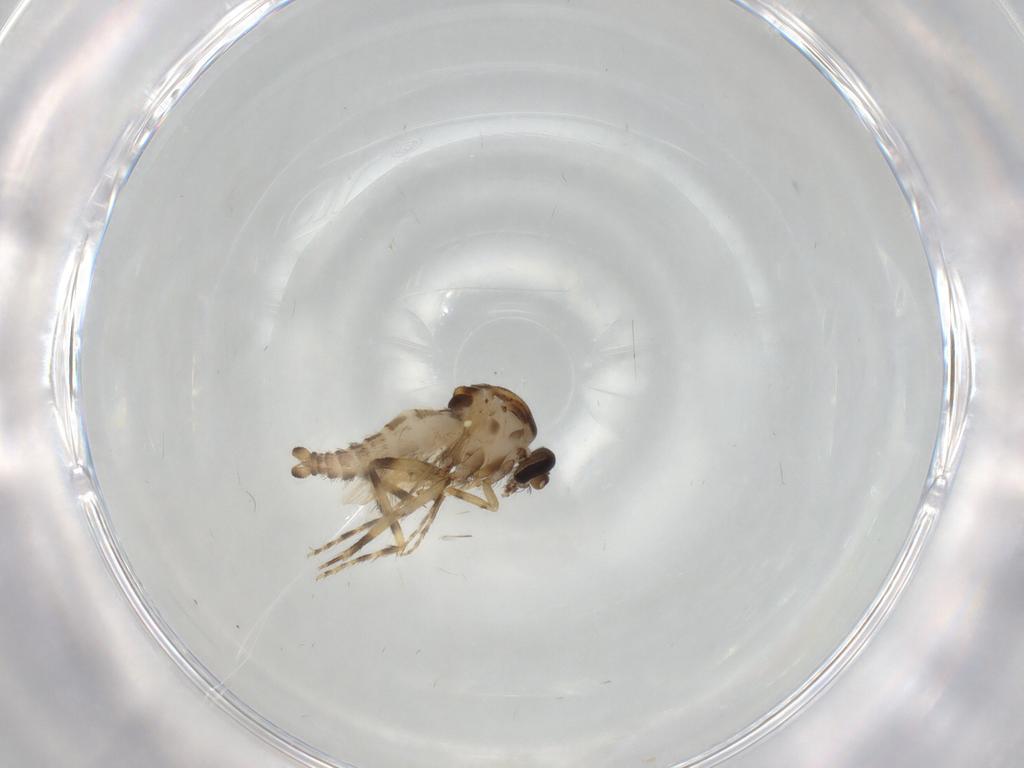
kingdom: Animalia
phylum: Arthropoda
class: Insecta
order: Diptera
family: Ceratopogonidae
